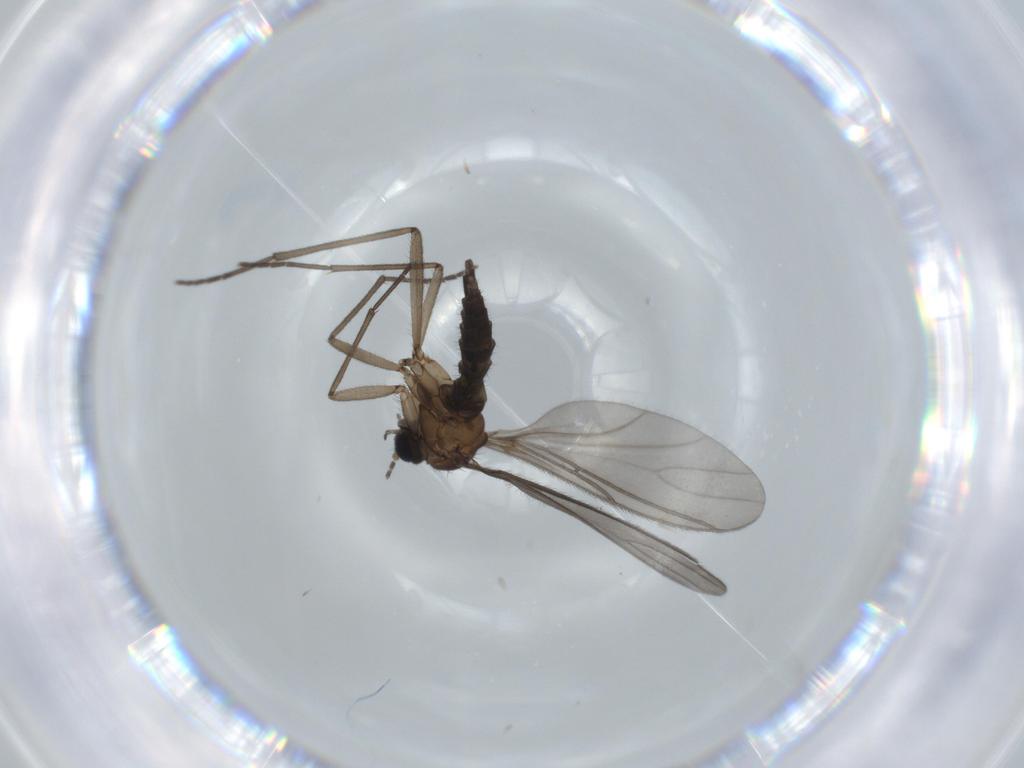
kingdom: Animalia
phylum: Arthropoda
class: Insecta
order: Diptera
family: Sciaridae
